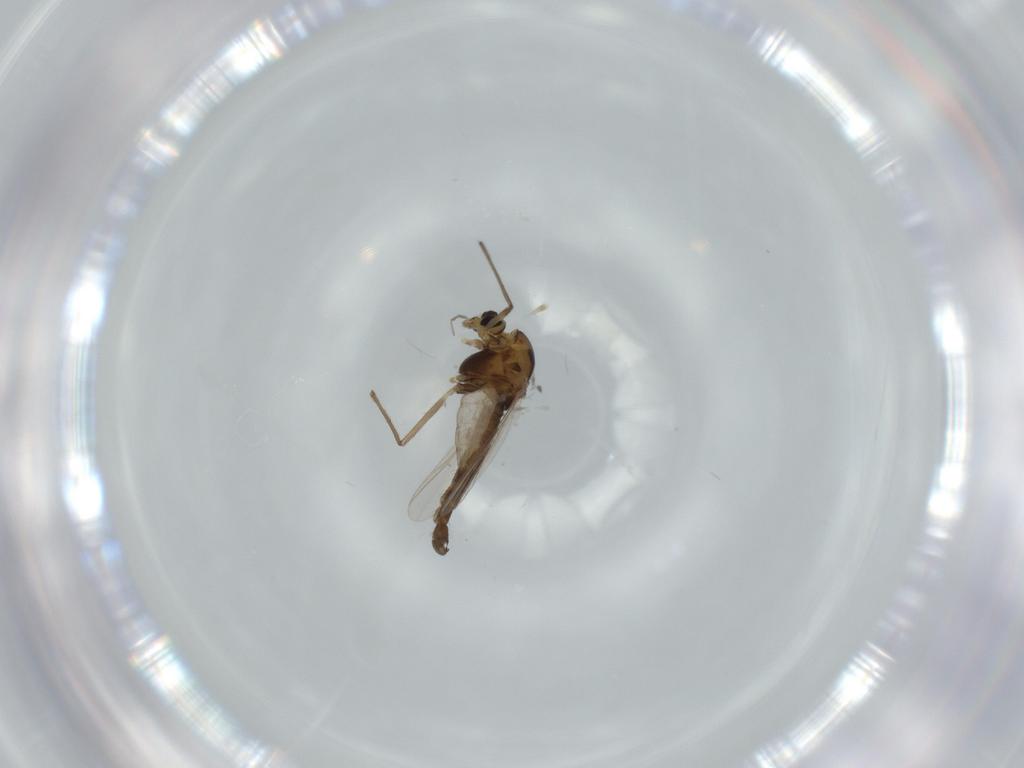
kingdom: Animalia
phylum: Arthropoda
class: Insecta
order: Diptera
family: Chironomidae
